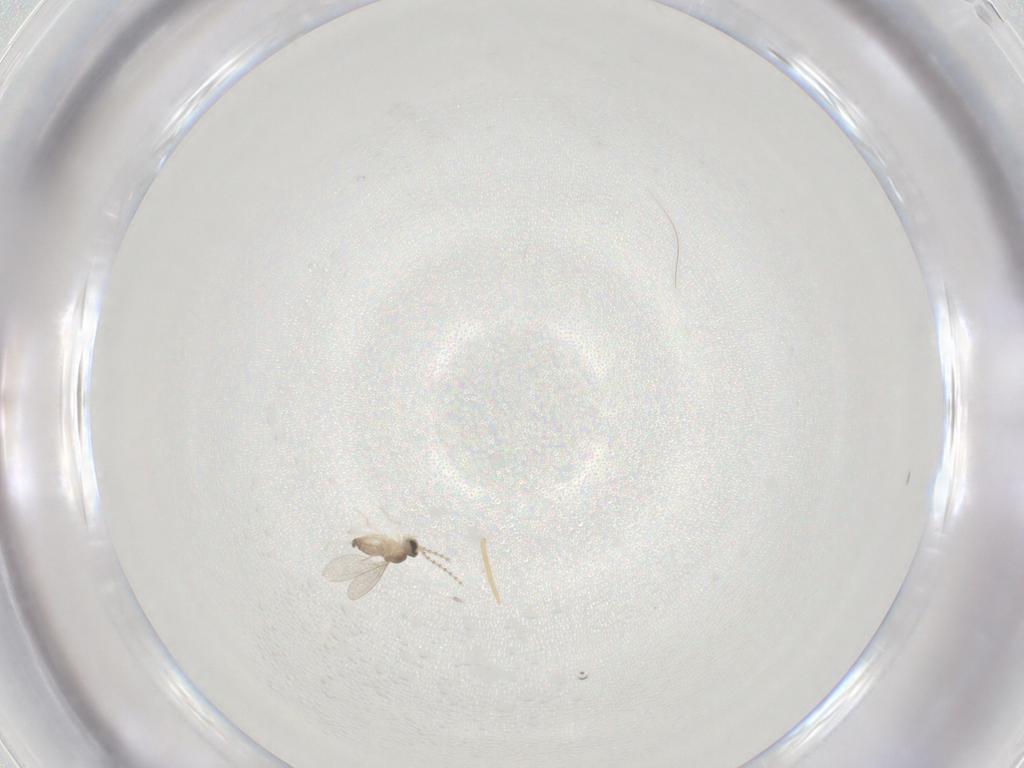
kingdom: Animalia
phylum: Arthropoda
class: Insecta
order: Diptera
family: Cecidomyiidae
